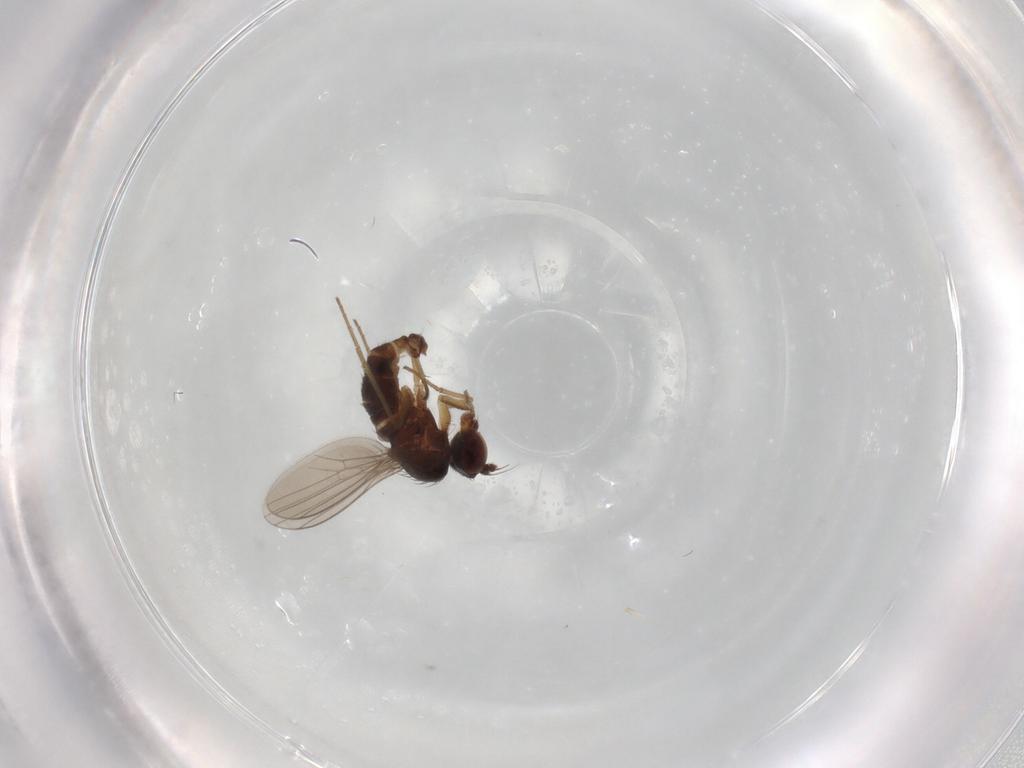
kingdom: Animalia
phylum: Arthropoda
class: Insecta
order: Diptera
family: Dolichopodidae
